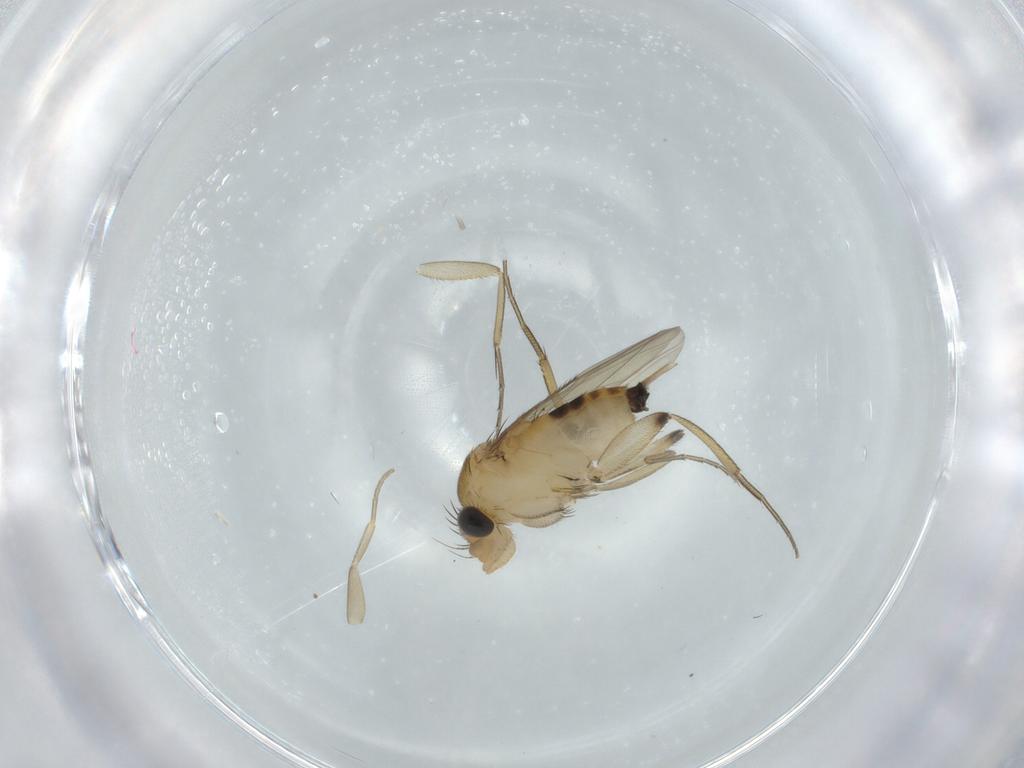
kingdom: Animalia
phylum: Arthropoda
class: Insecta
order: Diptera
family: Phoridae
